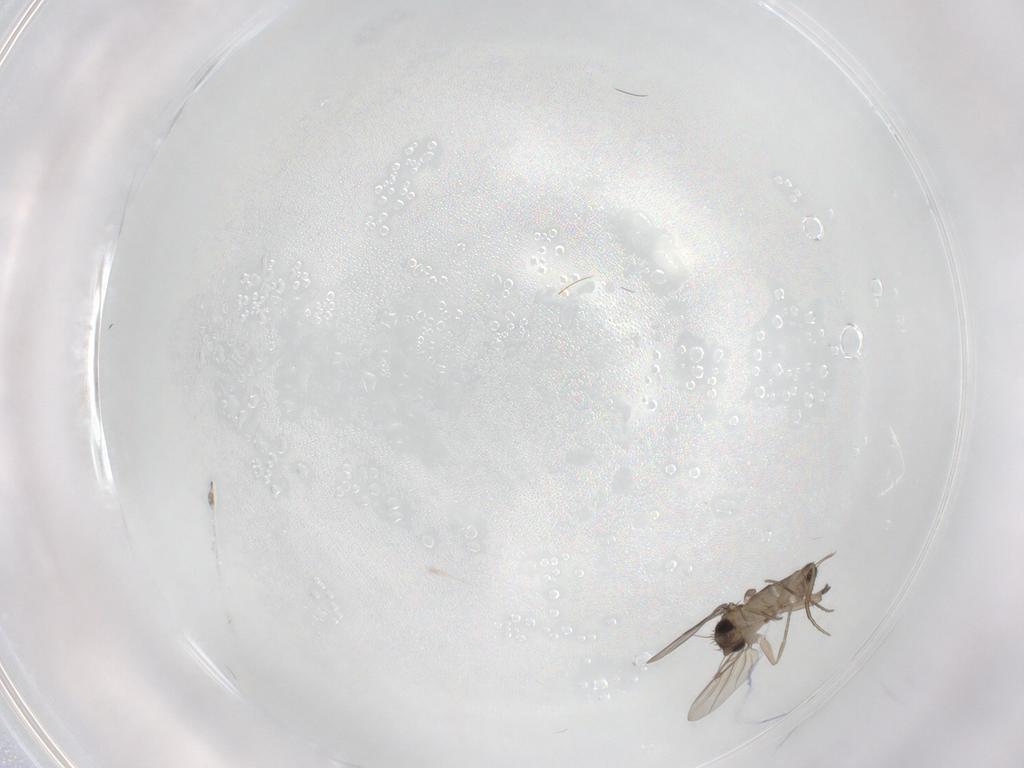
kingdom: Animalia
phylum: Arthropoda
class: Insecta
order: Diptera
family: Phoridae
